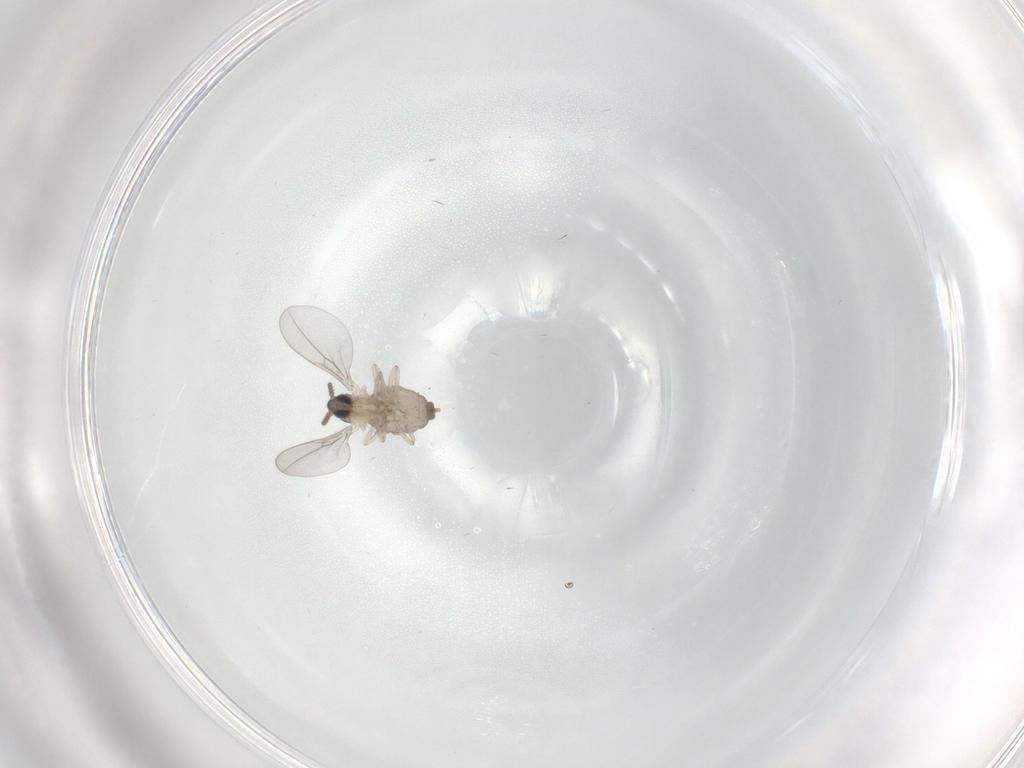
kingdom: Animalia
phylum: Arthropoda
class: Insecta
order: Diptera
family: Cecidomyiidae
